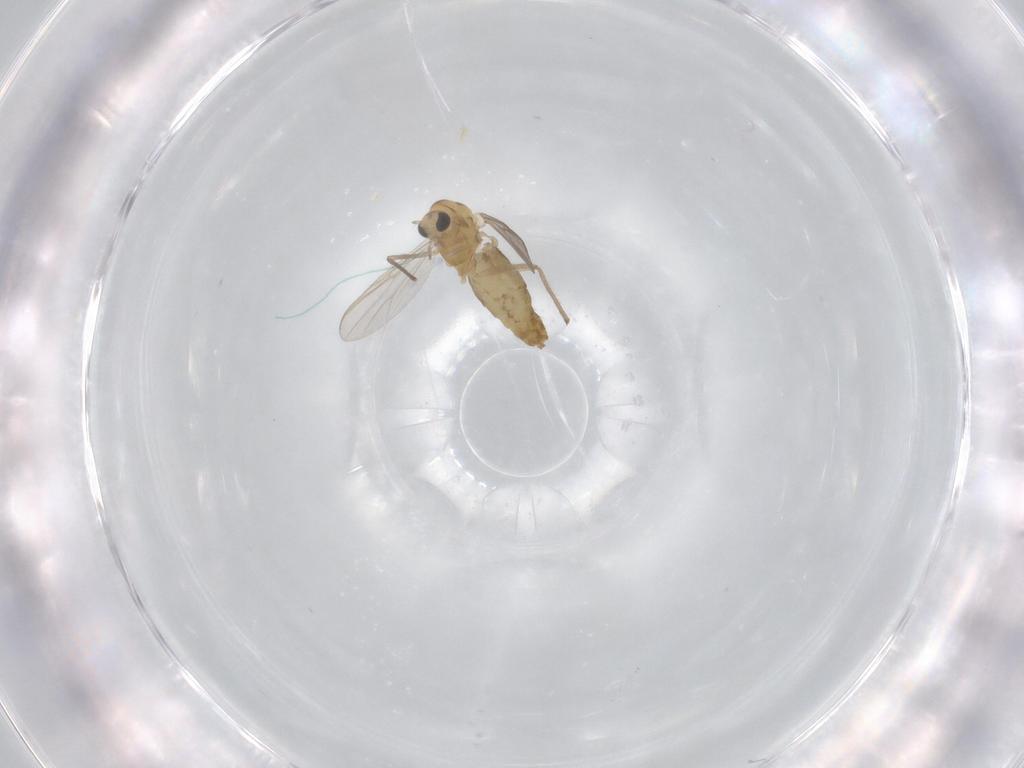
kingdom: Animalia
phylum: Arthropoda
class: Insecta
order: Diptera
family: Chironomidae
